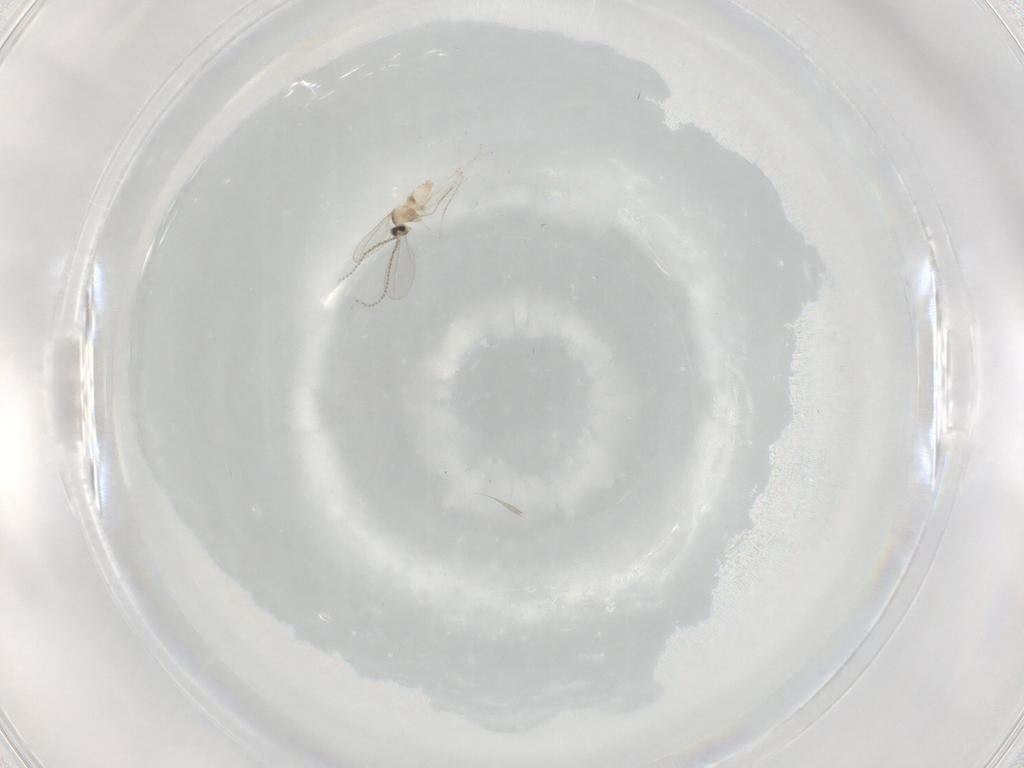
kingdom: Animalia
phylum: Arthropoda
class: Insecta
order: Diptera
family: Cecidomyiidae
